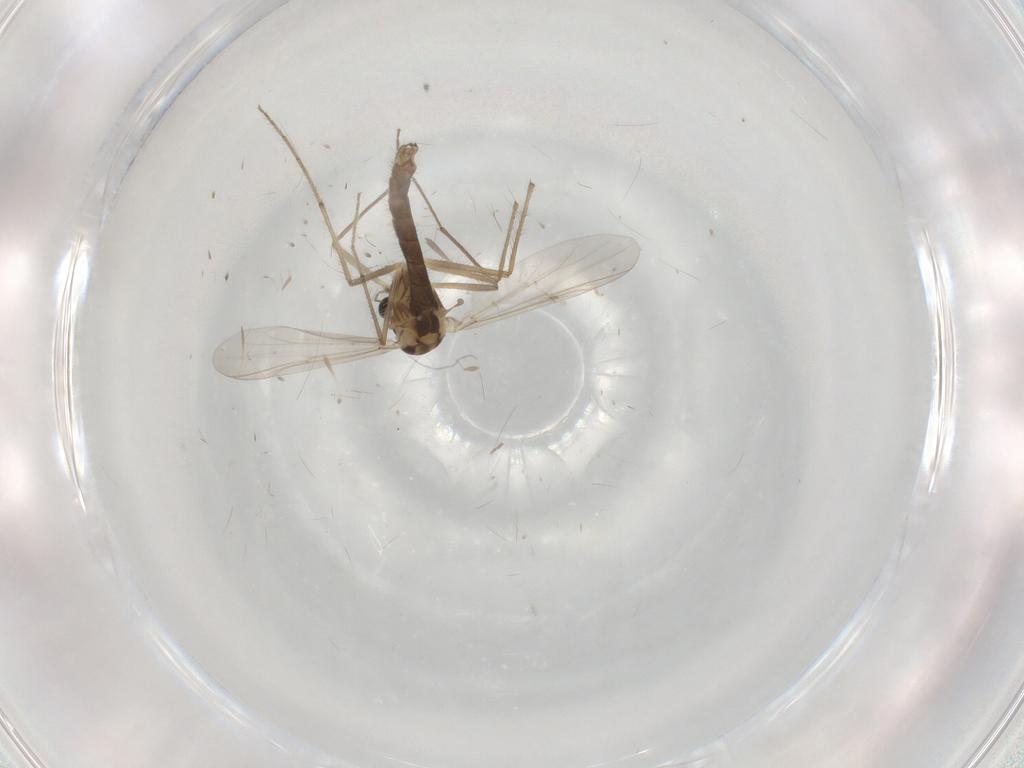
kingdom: Animalia
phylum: Arthropoda
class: Insecta
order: Diptera
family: Chironomidae
